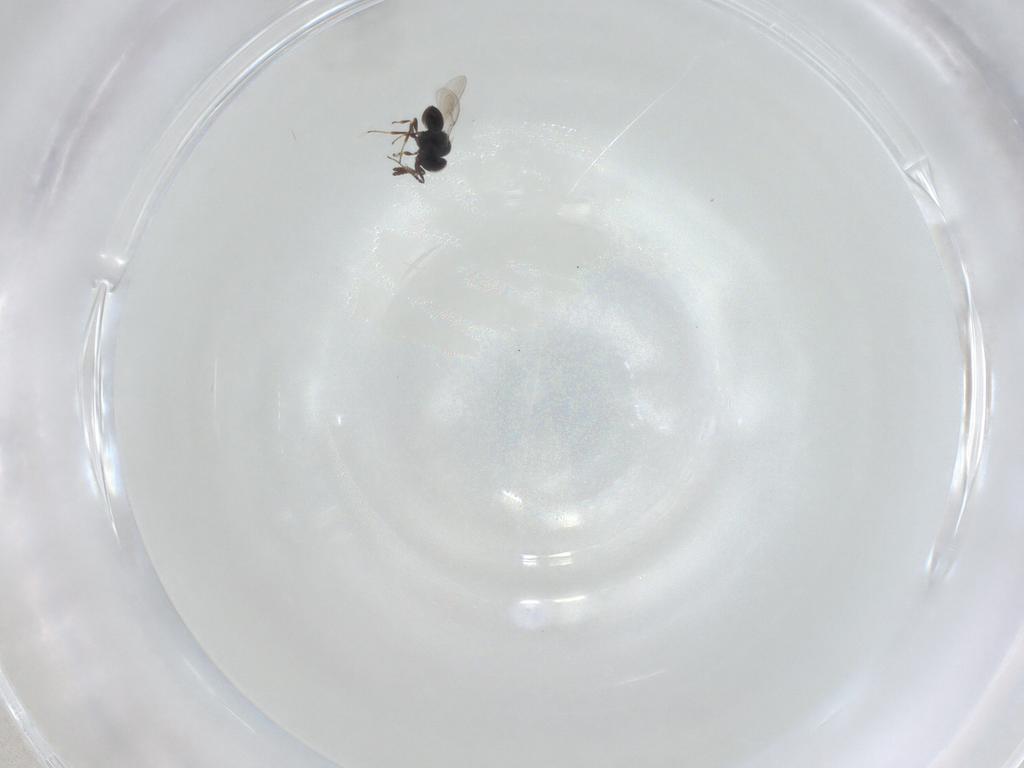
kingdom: Animalia
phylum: Arthropoda
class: Insecta
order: Hymenoptera
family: Scelionidae
